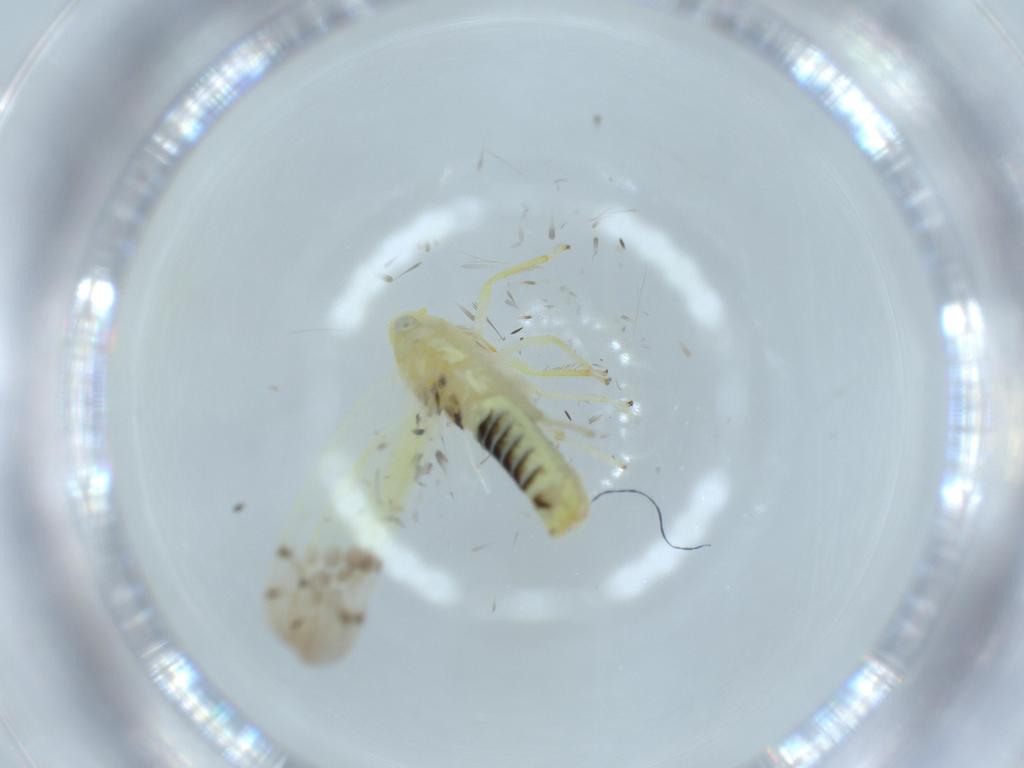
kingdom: Animalia
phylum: Arthropoda
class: Insecta
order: Hemiptera
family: Cicadellidae
